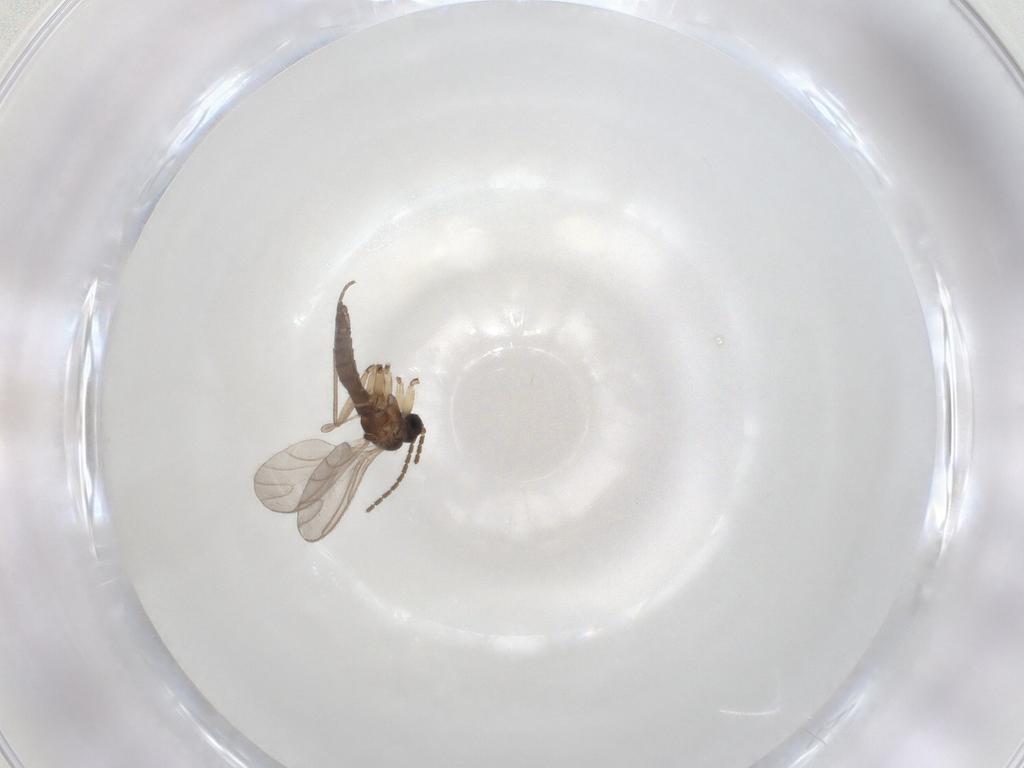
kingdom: Animalia
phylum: Arthropoda
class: Insecta
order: Diptera
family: Sciaridae
